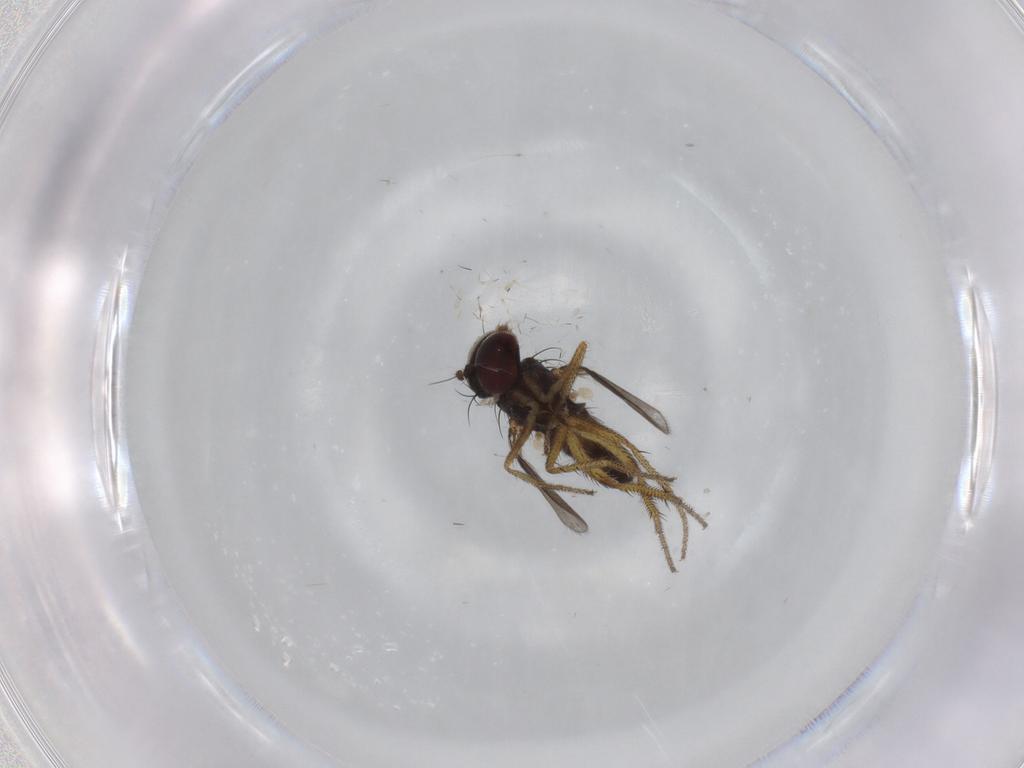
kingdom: Animalia
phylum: Arthropoda
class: Insecta
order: Diptera
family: Dolichopodidae
